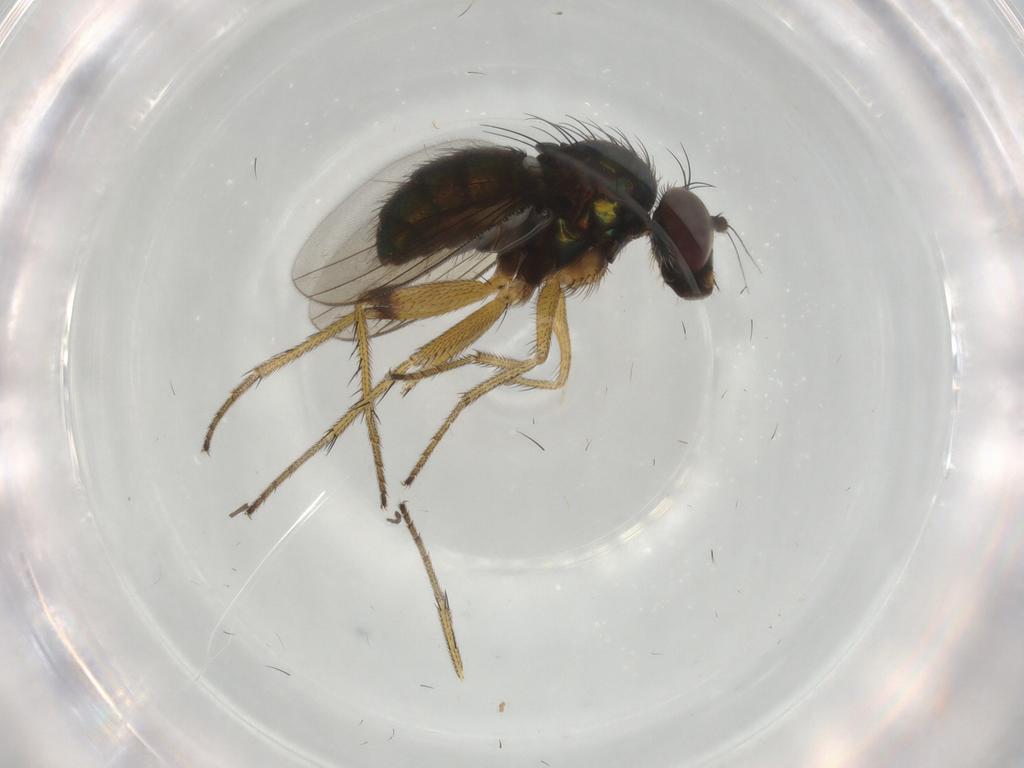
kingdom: Animalia
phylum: Arthropoda
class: Insecta
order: Diptera
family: Dolichopodidae
